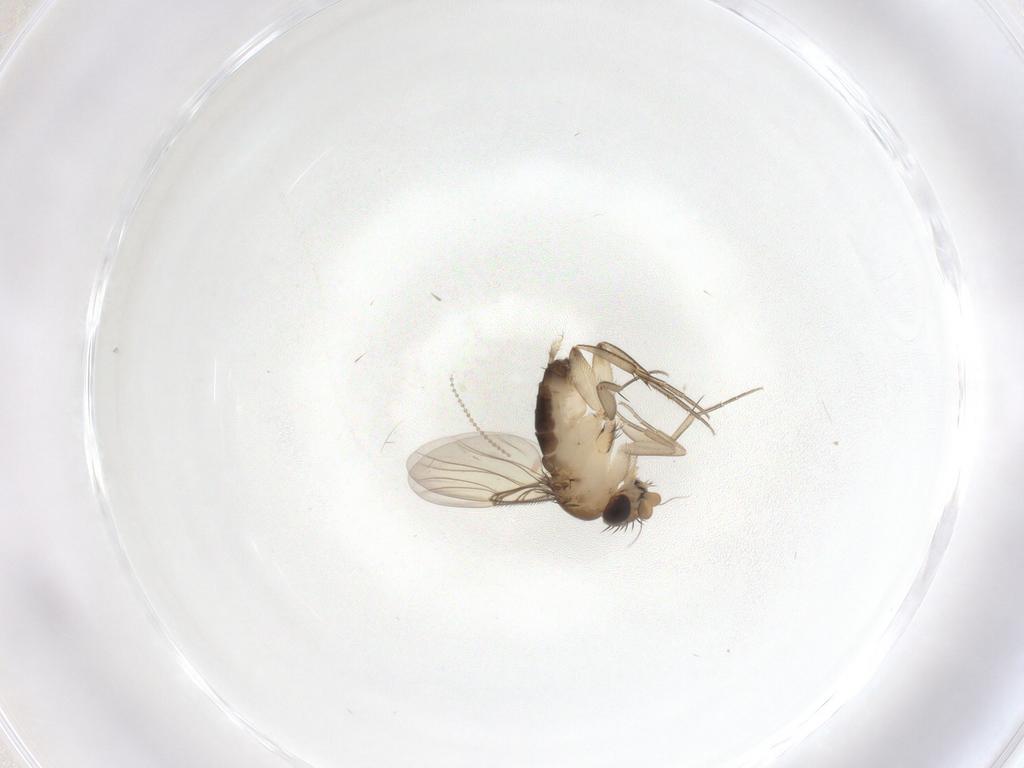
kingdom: Animalia
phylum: Arthropoda
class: Insecta
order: Diptera
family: Phoridae
